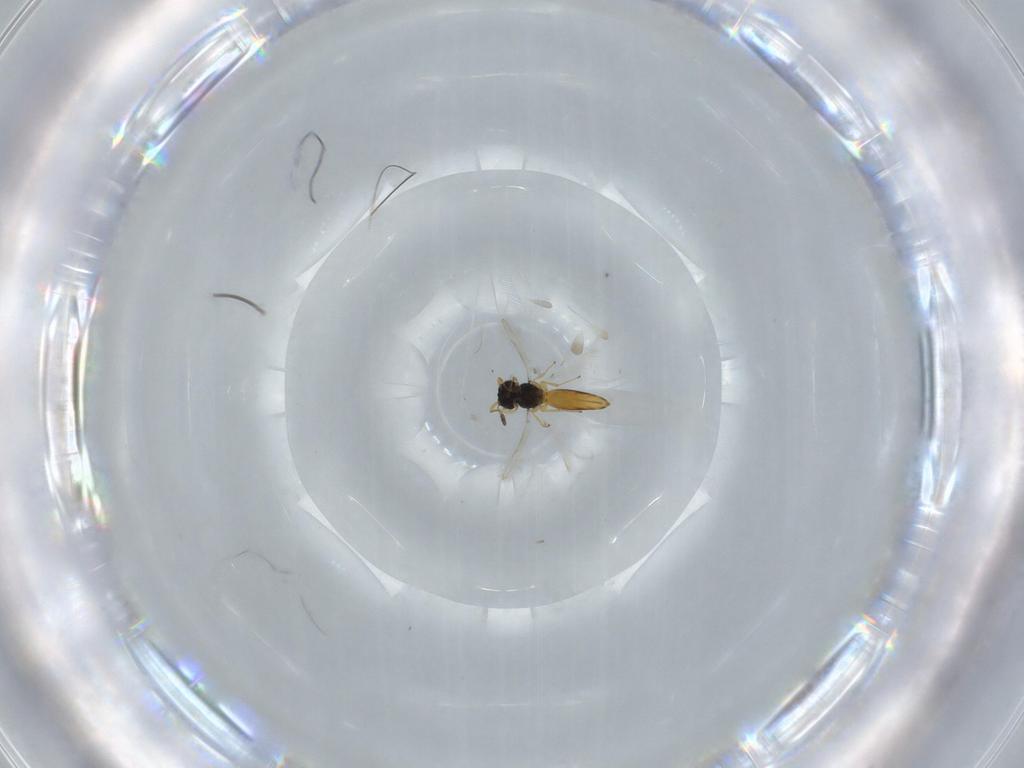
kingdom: Animalia
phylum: Arthropoda
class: Insecta
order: Hymenoptera
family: Scelionidae
